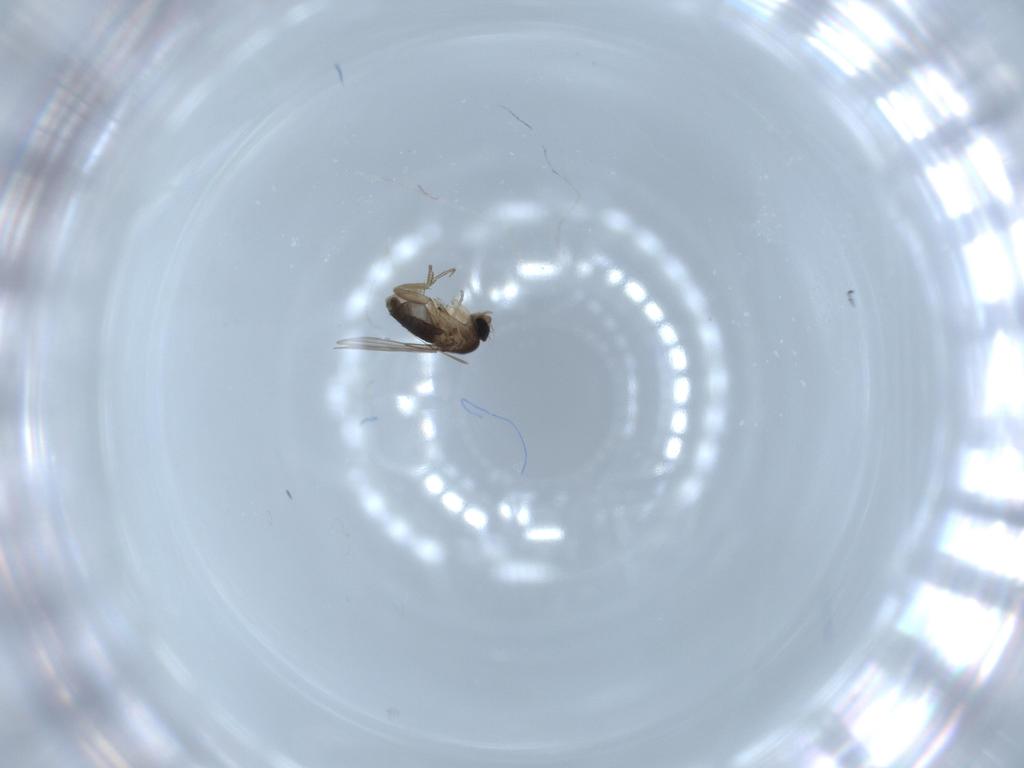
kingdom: Animalia
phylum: Arthropoda
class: Insecta
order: Diptera
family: Phoridae
